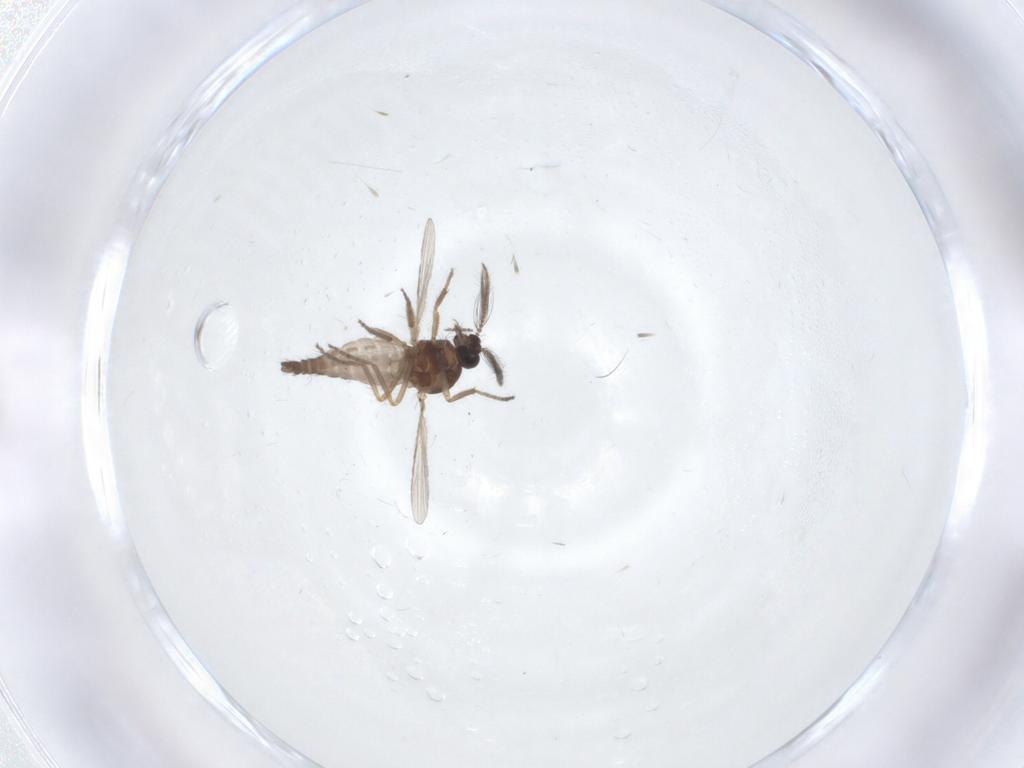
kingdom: Animalia
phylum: Arthropoda
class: Insecta
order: Diptera
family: Ceratopogonidae
